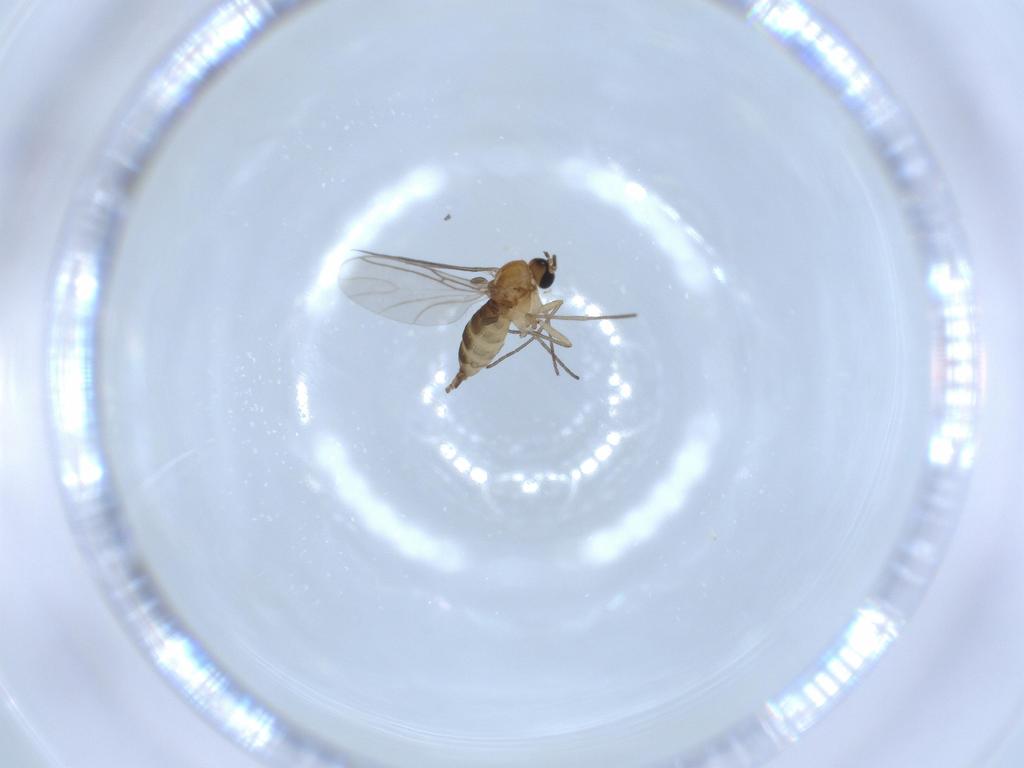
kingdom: Animalia
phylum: Arthropoda
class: Insecta
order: Diptera
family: Sciaridae
